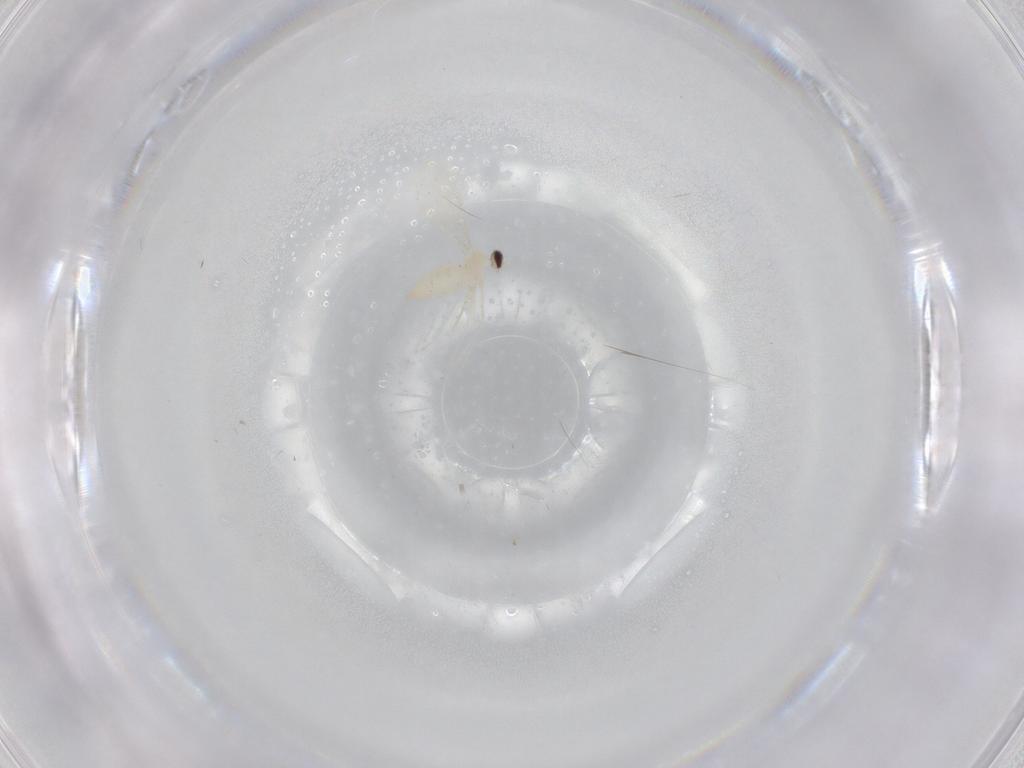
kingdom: Animalia
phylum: Arthropoda
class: Insecta
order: Diptera
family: Cecidomyiidae
